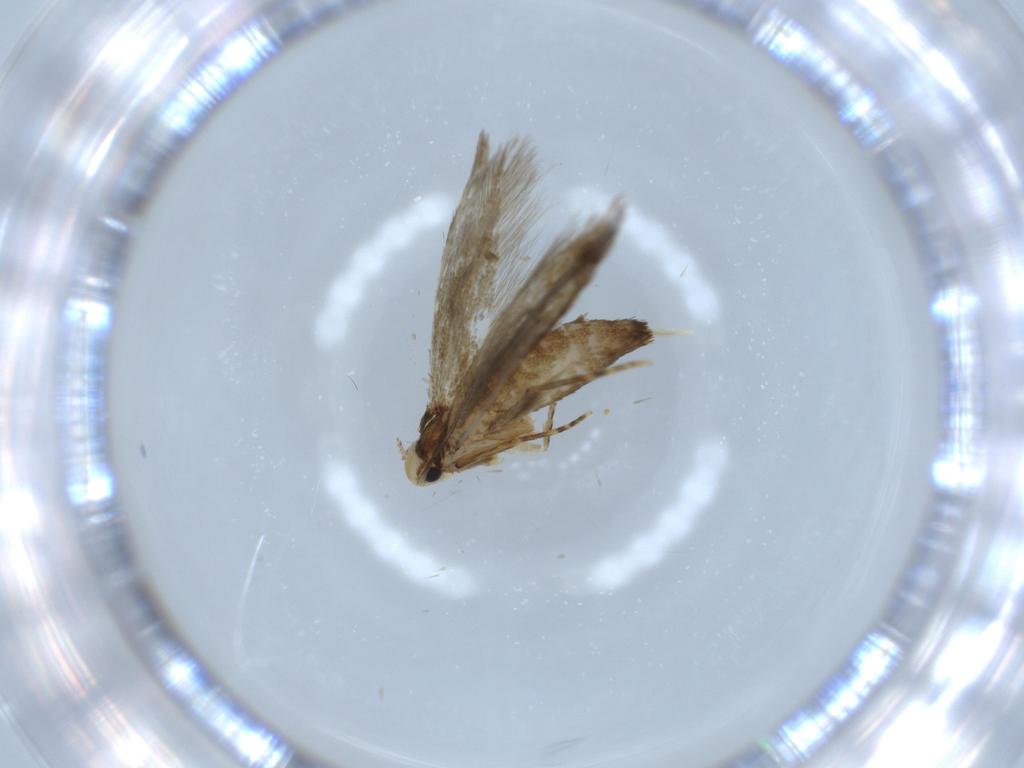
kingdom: Animalia
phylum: Arthropoda
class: Insecta
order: Lepidoptera
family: Tineidae
